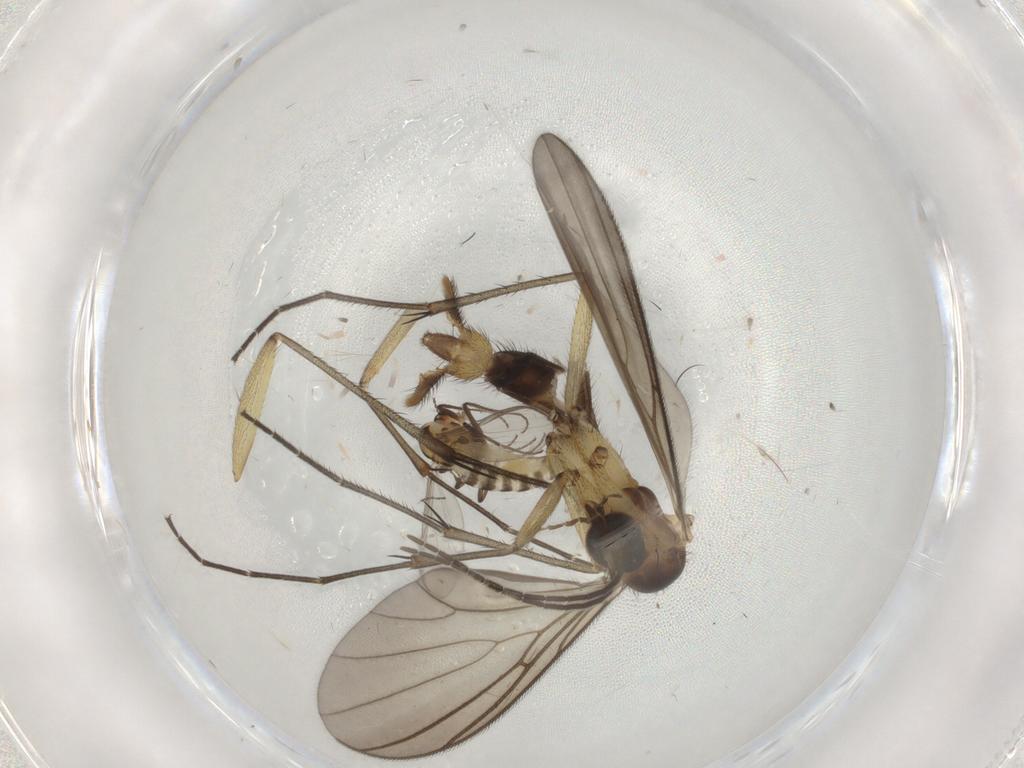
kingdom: Animalia
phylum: Arthropoda
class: Insecta
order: Diptera
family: Chironomidae
